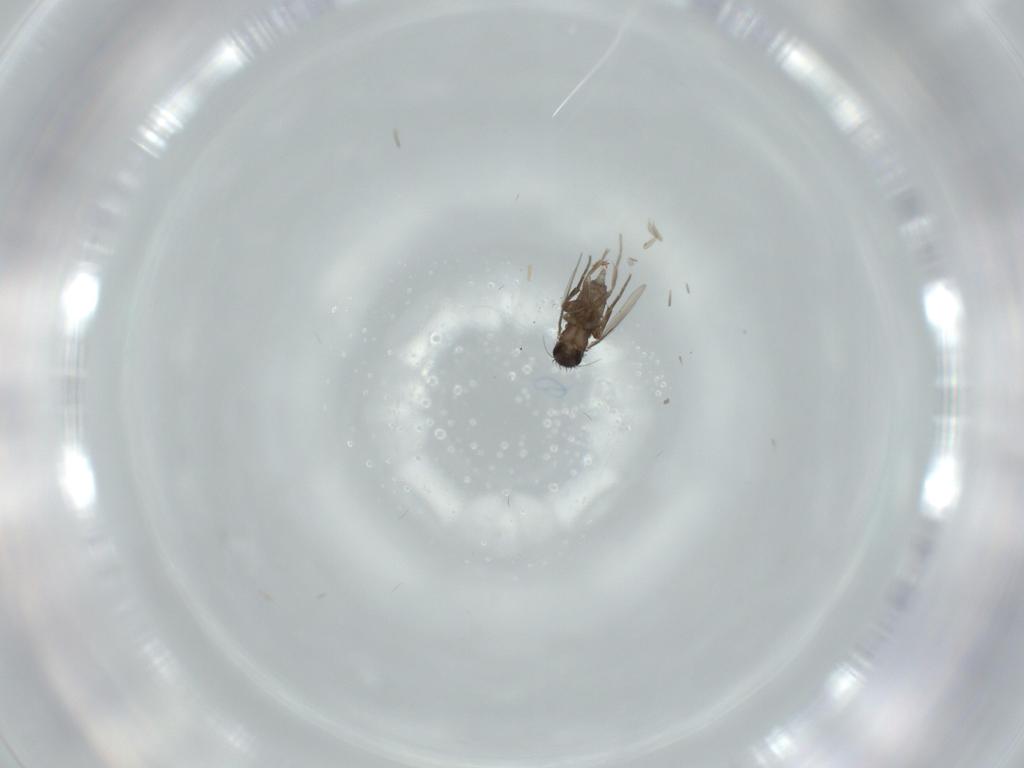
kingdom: Animalia
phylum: Arthropoda
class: Insecta
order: Diptera
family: Phoridae
